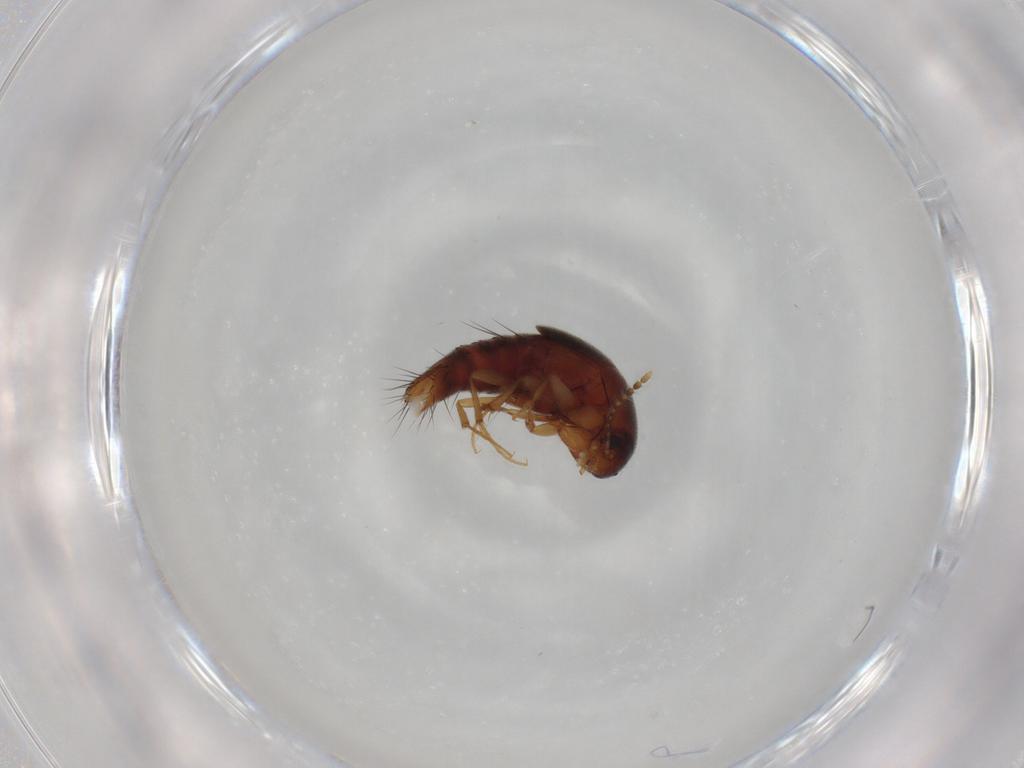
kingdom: Animalia
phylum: Arthropoda
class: Insecta
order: Coleoptera
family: Staphylinidae
